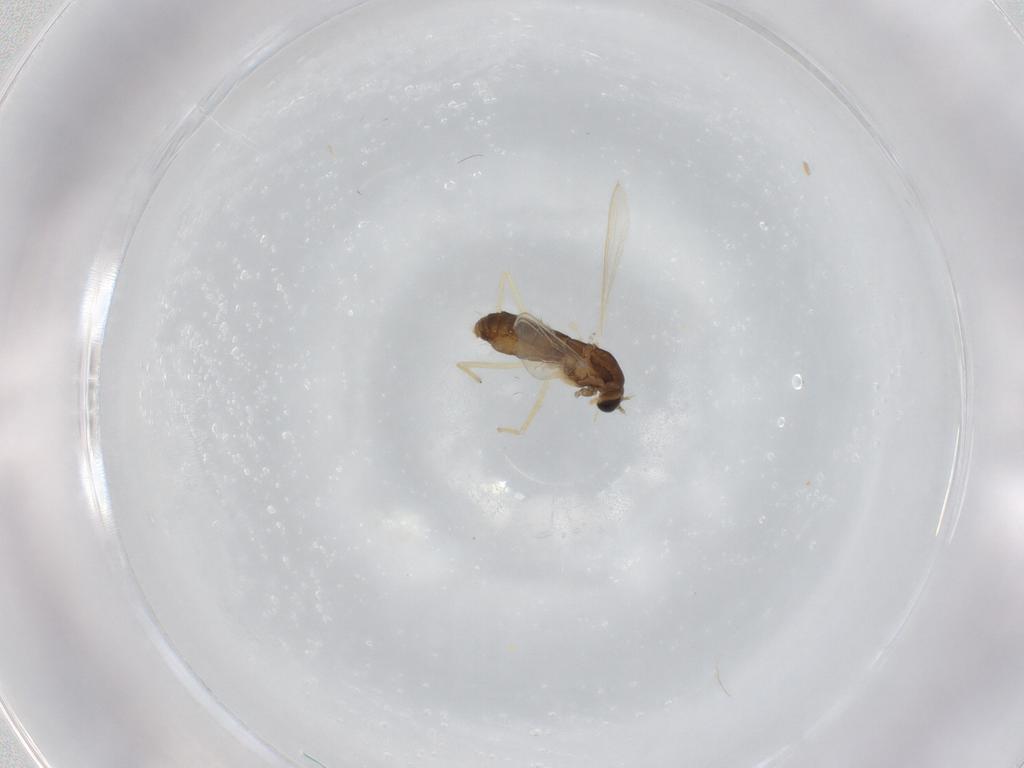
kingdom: Animalia
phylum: Arthropoda
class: Insecta
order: Diptera
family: Chironomidae
